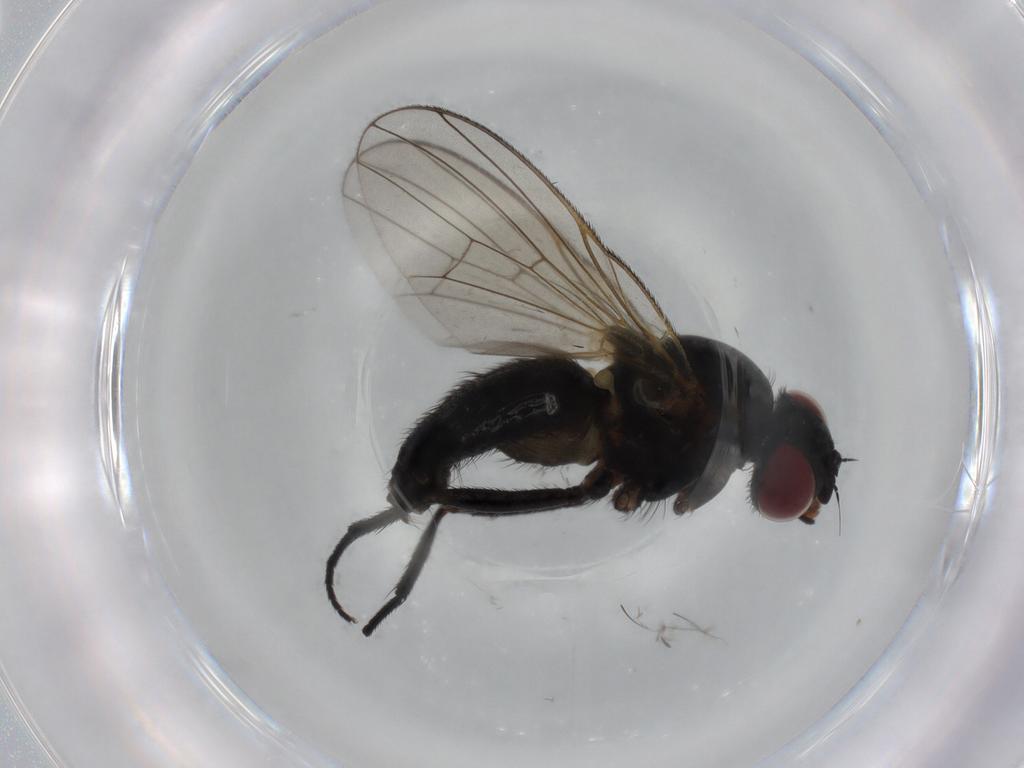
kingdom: Animalia
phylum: Arthropoda
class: Insecta
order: Diptera
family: Fannia
